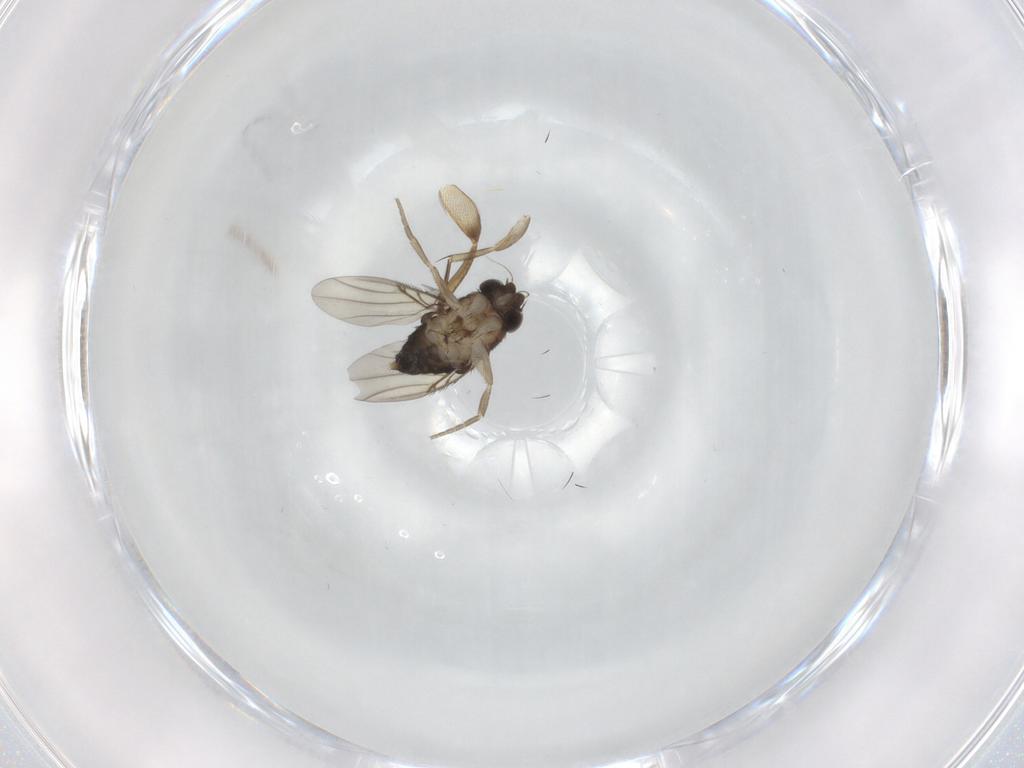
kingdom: Animalia
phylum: Arthropoda
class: Insecta
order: Diptera
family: Phoridae
